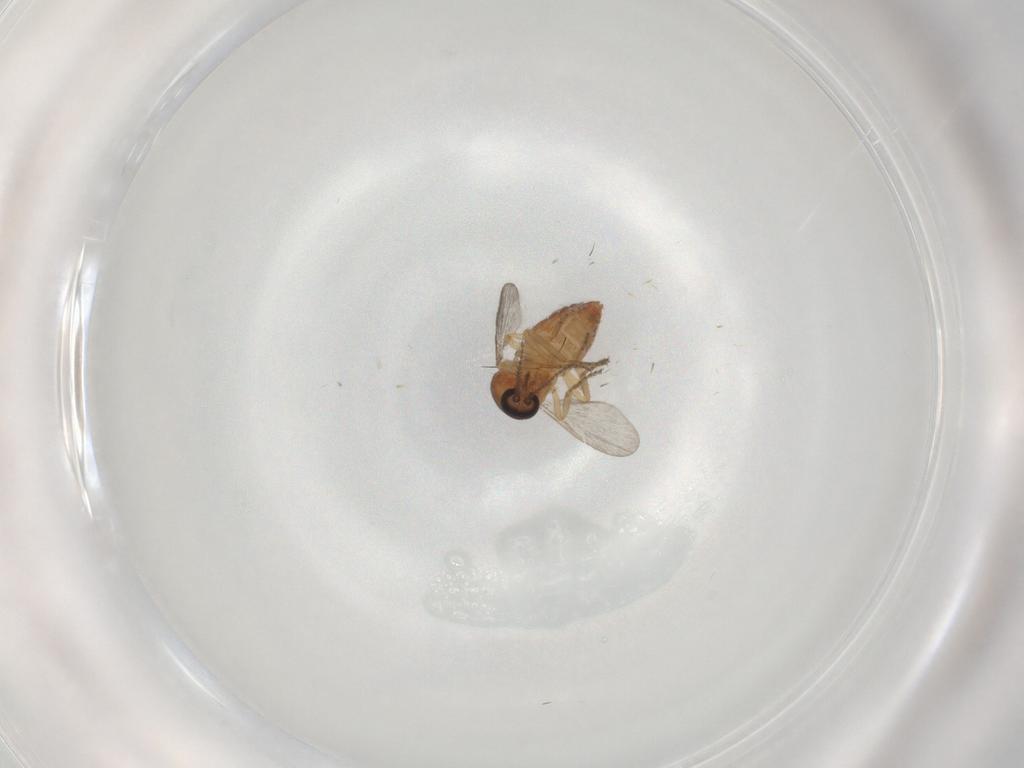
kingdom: Animalia
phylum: Arthropoda
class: Insecta
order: Diptera
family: Ceratopogonidae
